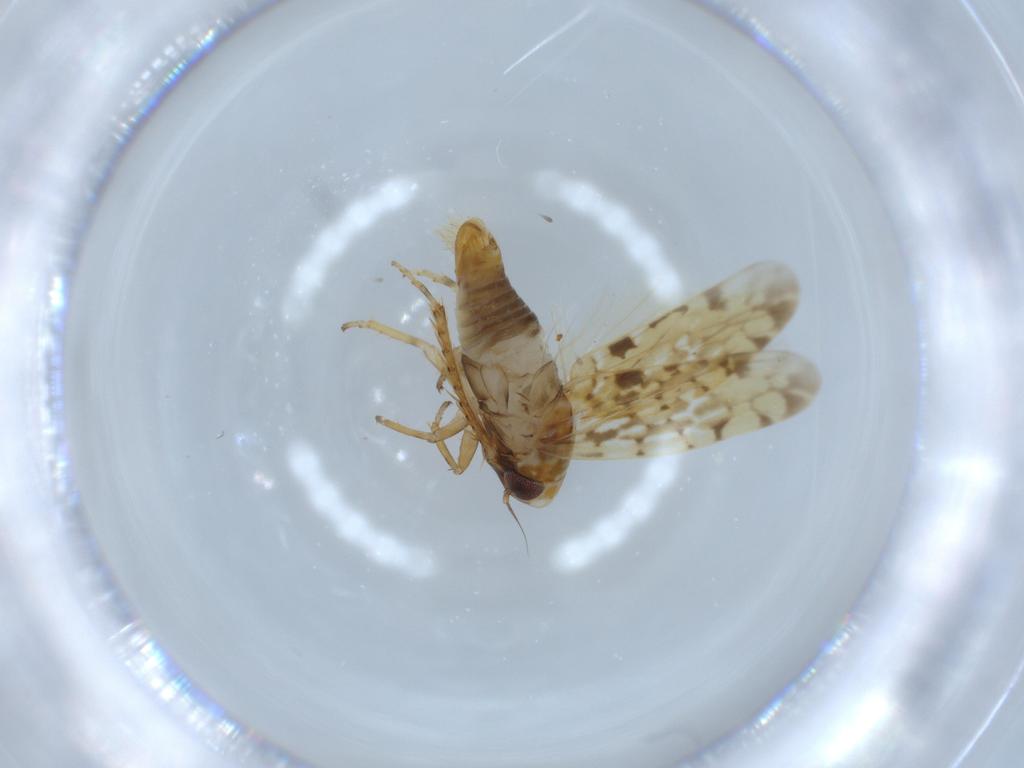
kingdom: Animalia
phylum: Arthropoda
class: Insecta
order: Hemiptera
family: Cicadellidae
